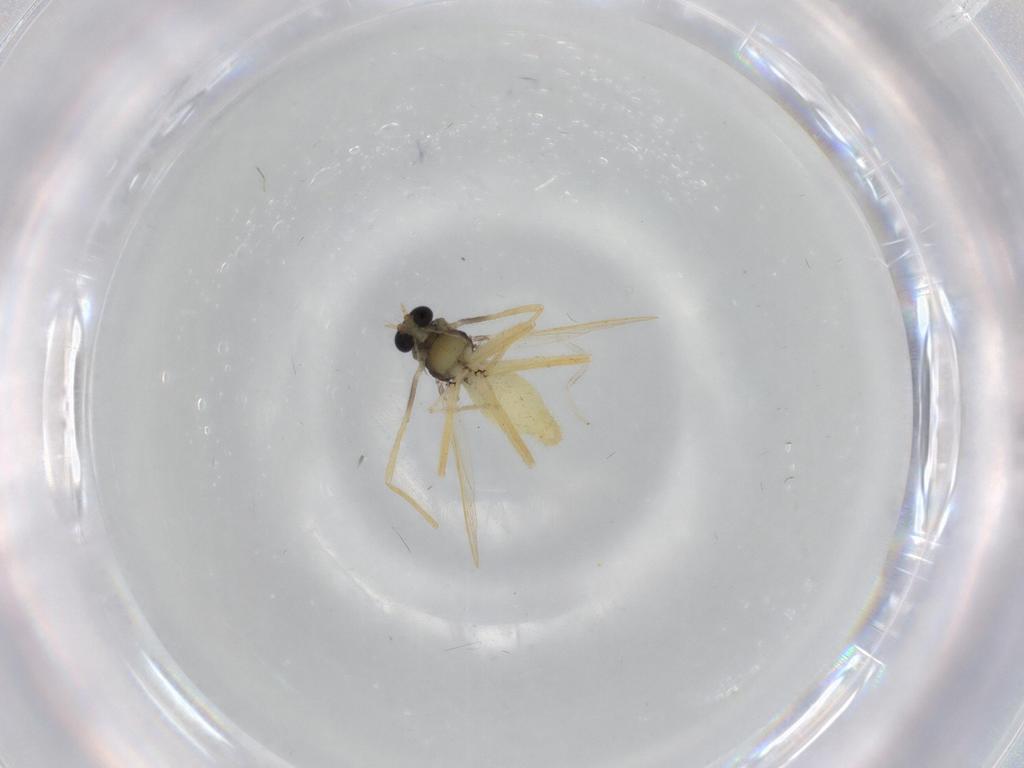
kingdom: Animalia
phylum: Arthropoda
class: Insecta
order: Diptera
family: Chironomidae
